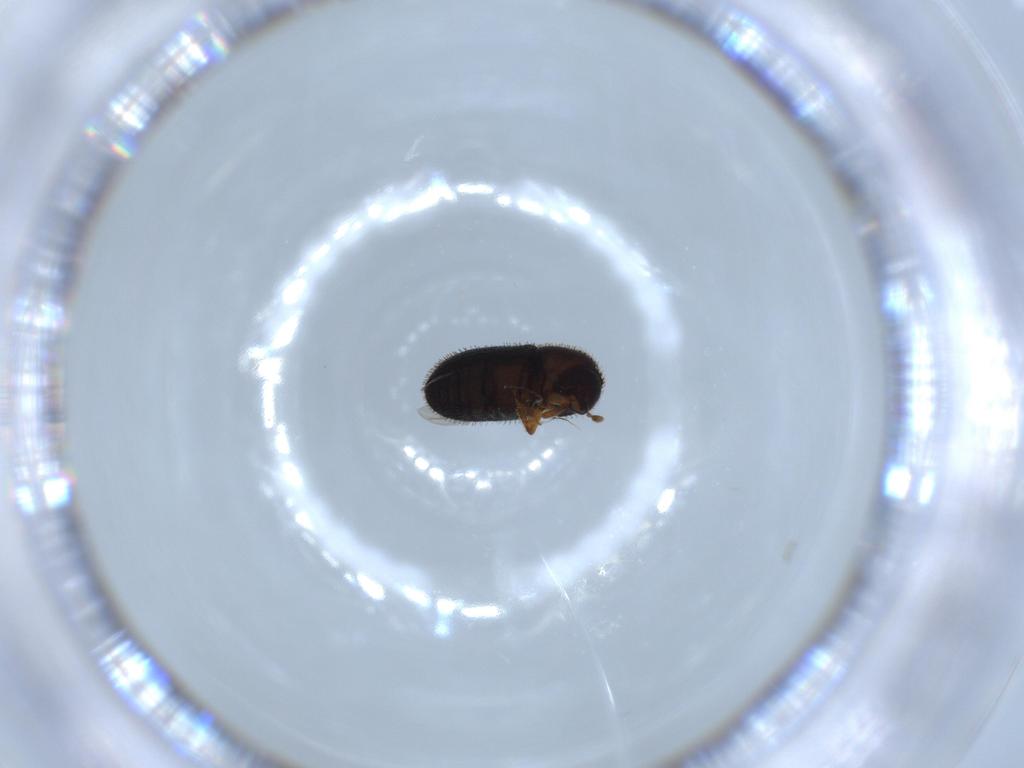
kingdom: Animalia
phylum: Arthropoda
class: Insecta
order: Coleoptera
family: Curculionidae
